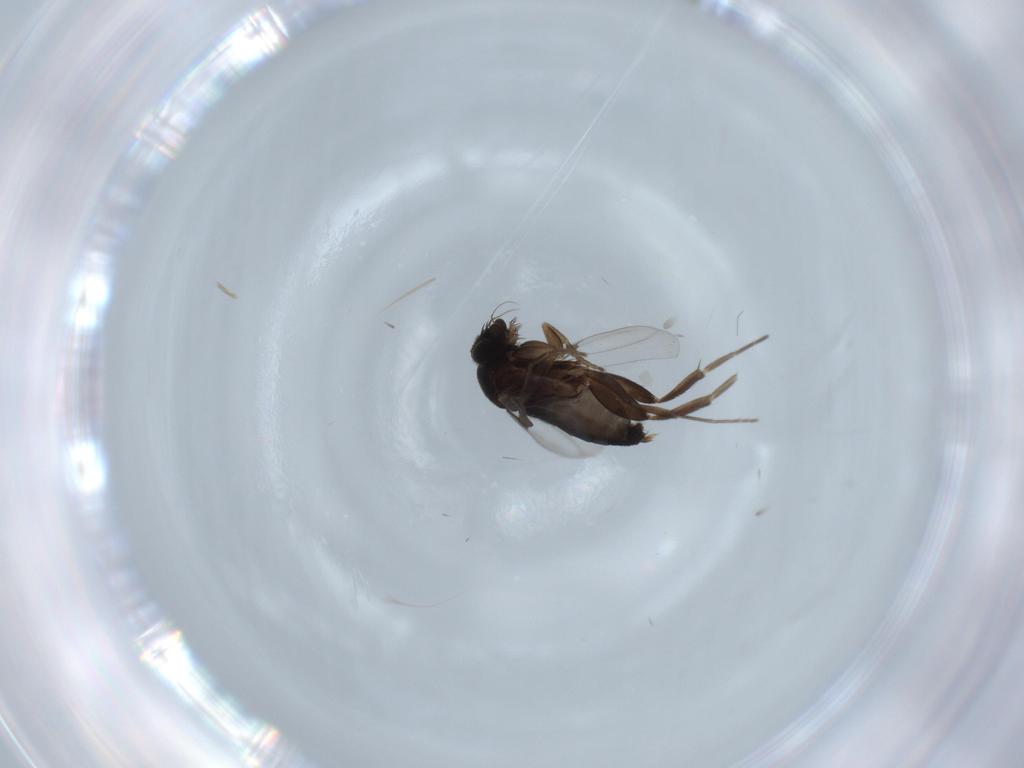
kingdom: Animalia
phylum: Arthropoda
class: Insecta
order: Diptera
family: Phoridae
